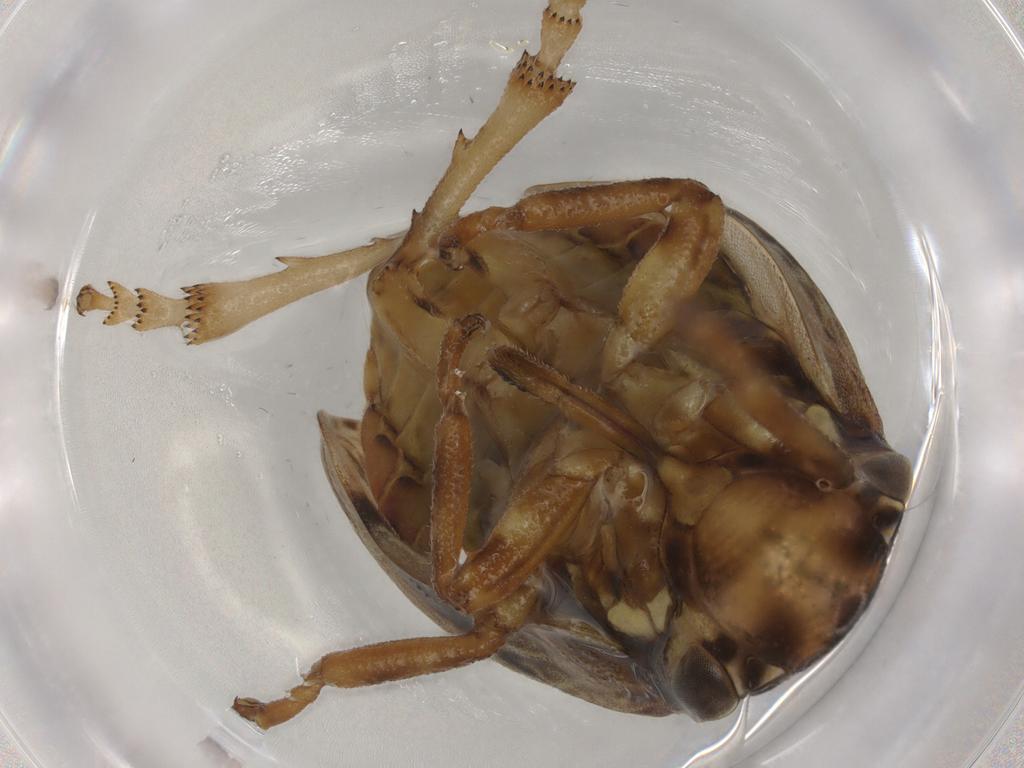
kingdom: Animalia
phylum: Arthropoda
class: Insecta
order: Hemiptera
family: Aphrophoridae
